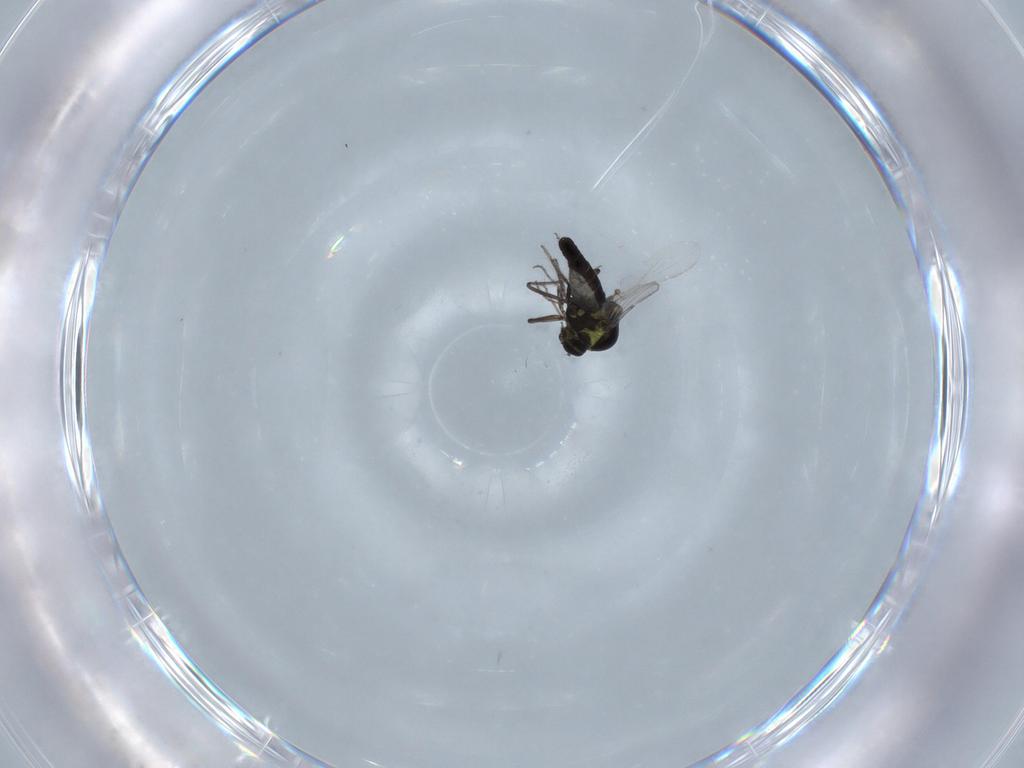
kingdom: Animalia
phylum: Arthropoda
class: Insecta
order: Diptera
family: Ceratopogonidae
